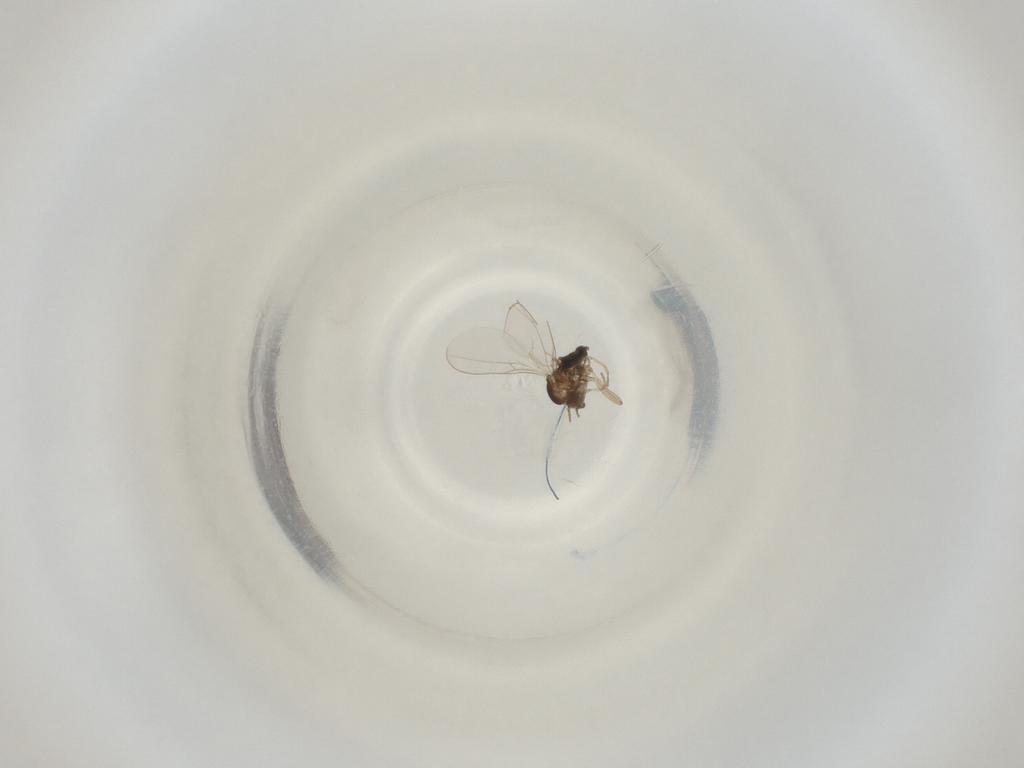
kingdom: Animalia
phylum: Arthropoda
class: Insecta
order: Diptera
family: Cecidomyiidae
